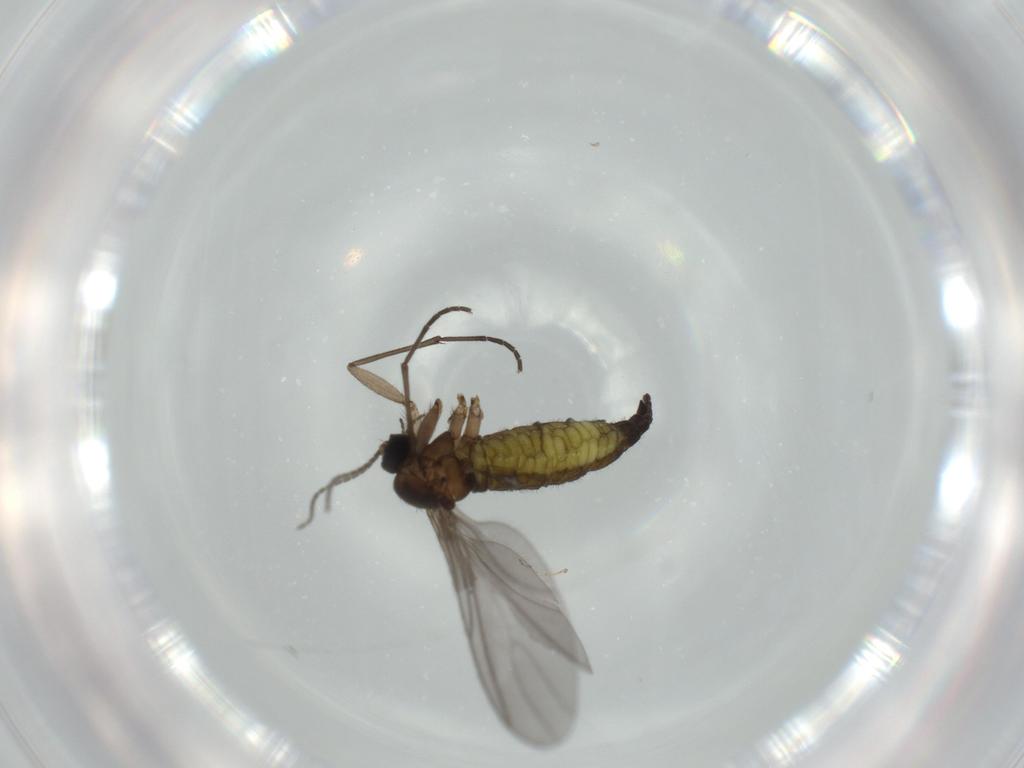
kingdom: Animalia
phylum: Arthropoda
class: Insecta
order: Diptera
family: Sciaridae
